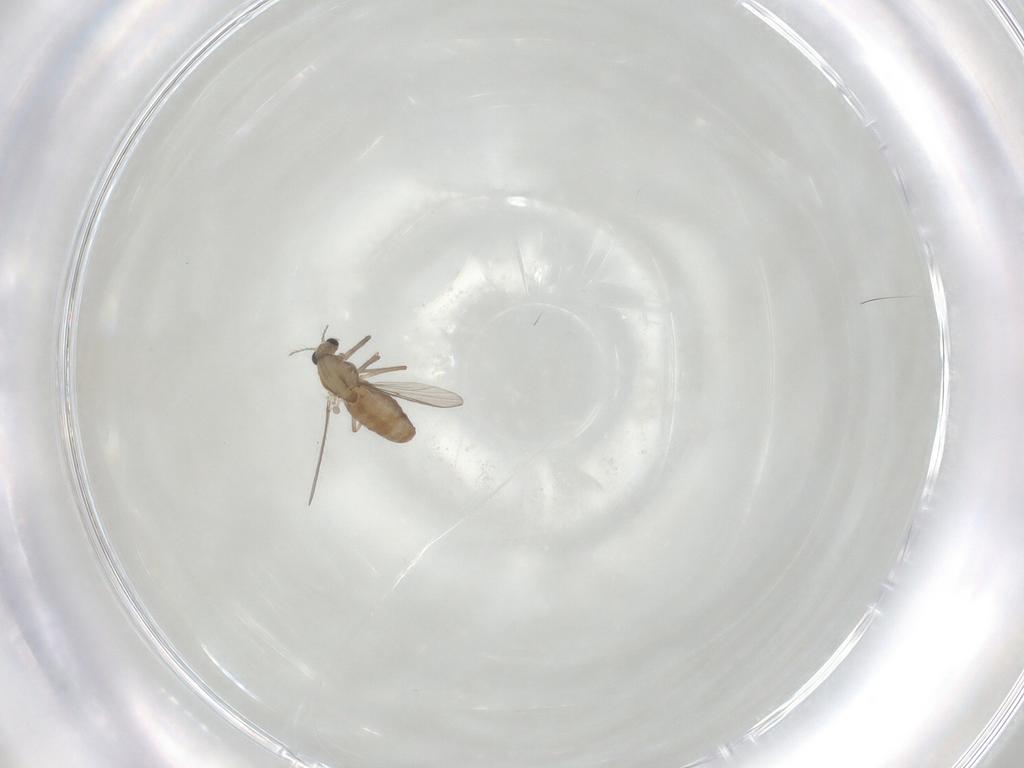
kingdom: Animalia
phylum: Arthropoda
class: Insecta
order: Diptera
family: Chironomidae
